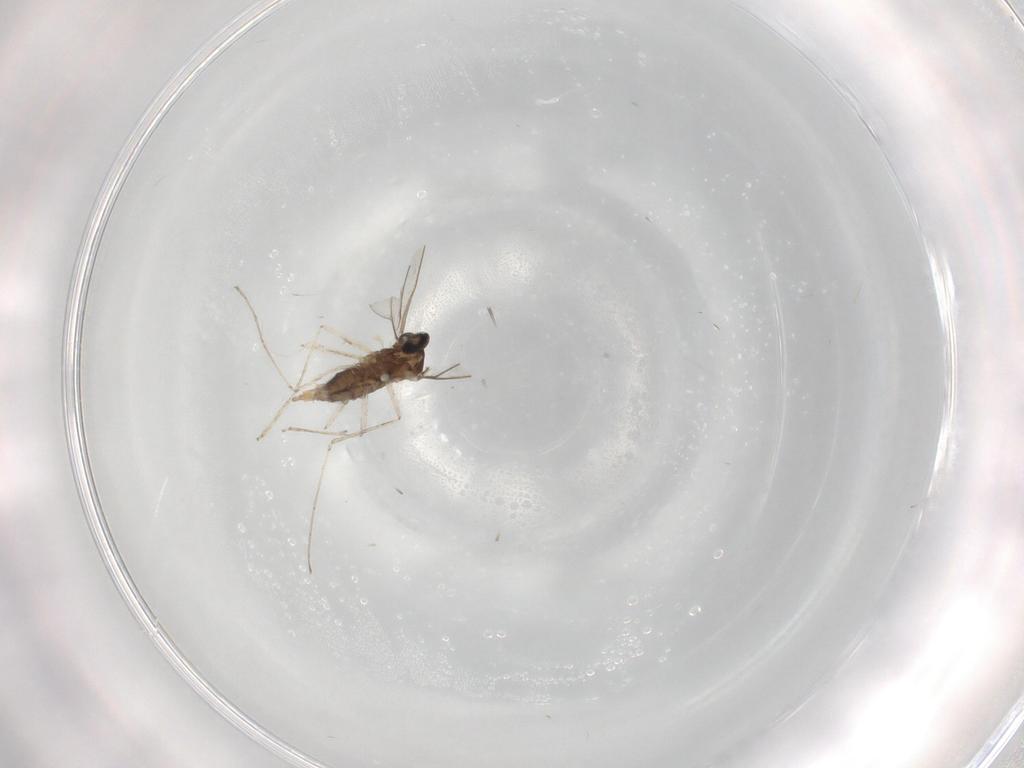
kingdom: Animalia
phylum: Arthropoda
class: Insecta
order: Diptera
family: Cecidomyiidae
